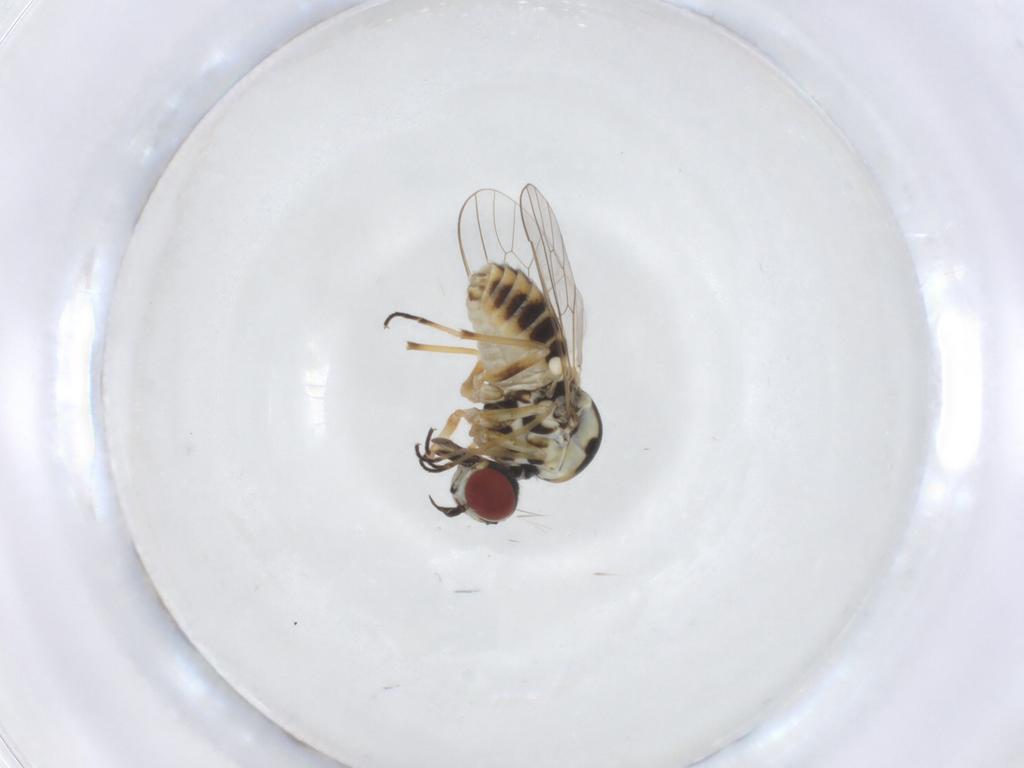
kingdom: Animalia
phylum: Arthropoda
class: Insecta
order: Diptera
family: Mythicomyiidae
